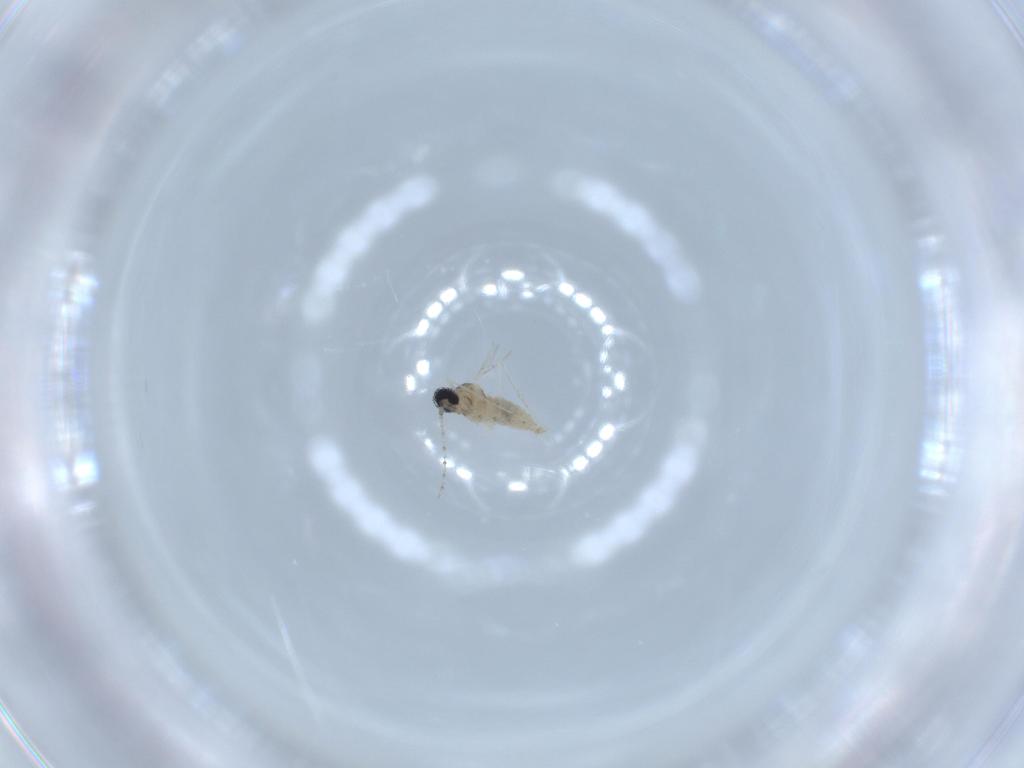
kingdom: Animalia
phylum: Arthropoda
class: Insecta
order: Diptera
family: Cecidomyiidae
